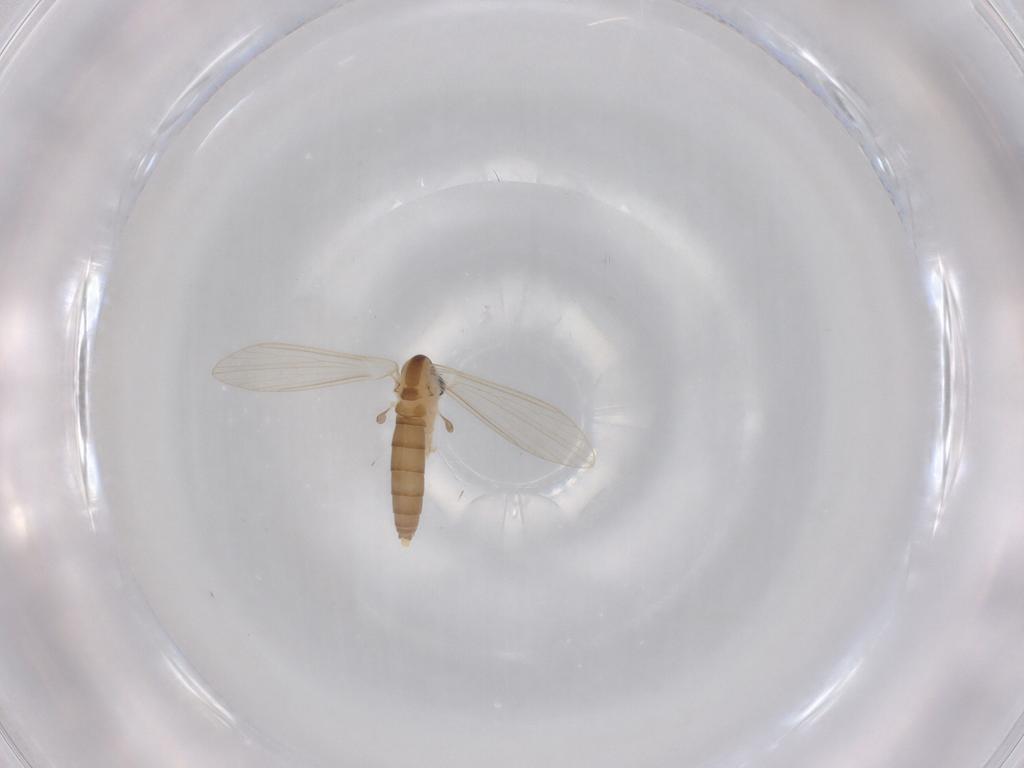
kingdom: Animalia
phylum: Arthropoda
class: Insecta
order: Diptera
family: Psychodidae
